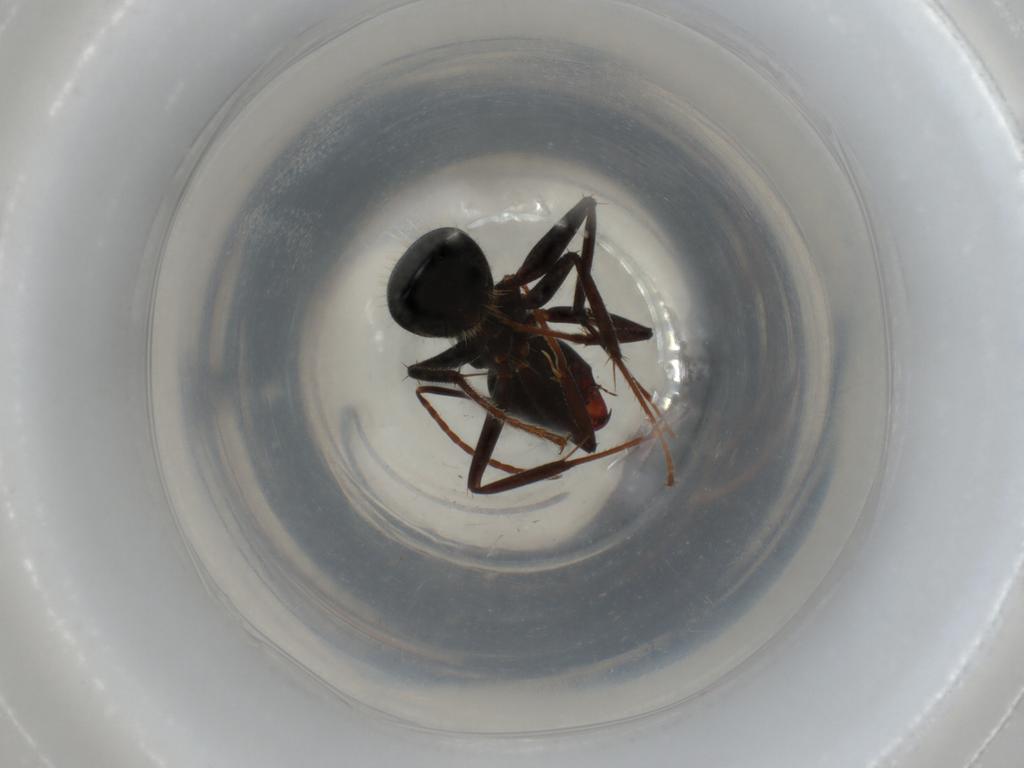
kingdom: Animalia
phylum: Arthropoda
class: Insecta
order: Hymenoptera
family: Formicidae
